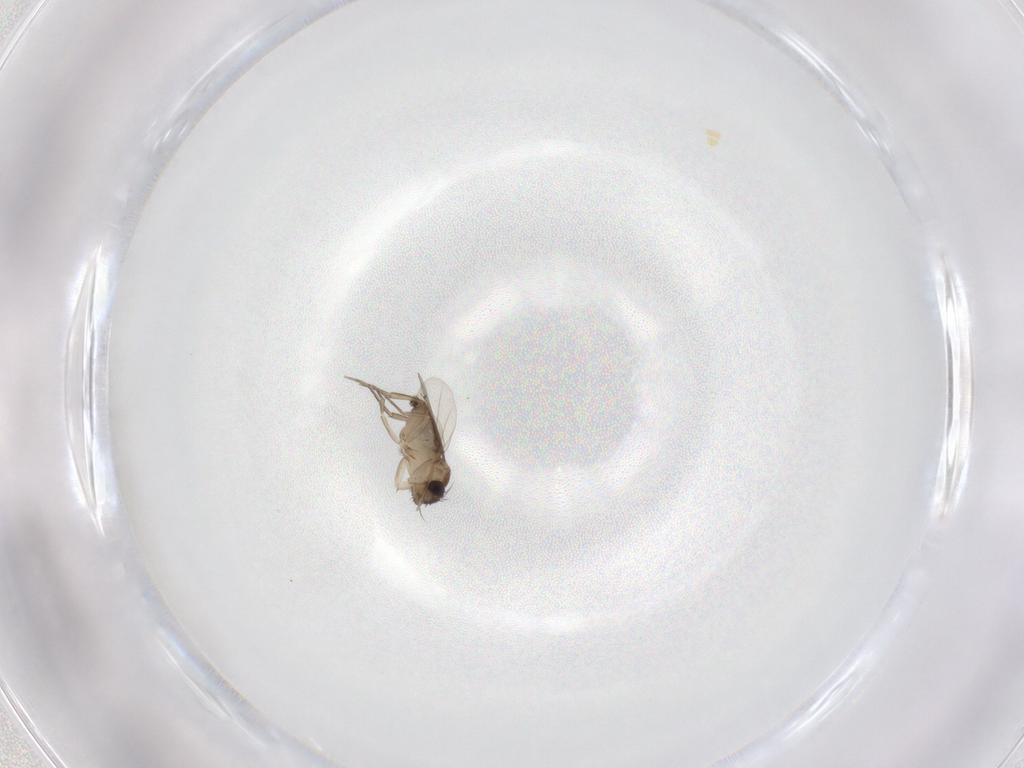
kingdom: Animalia
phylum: Arthropoda
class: Insecta
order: Diptera
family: Phoridae
